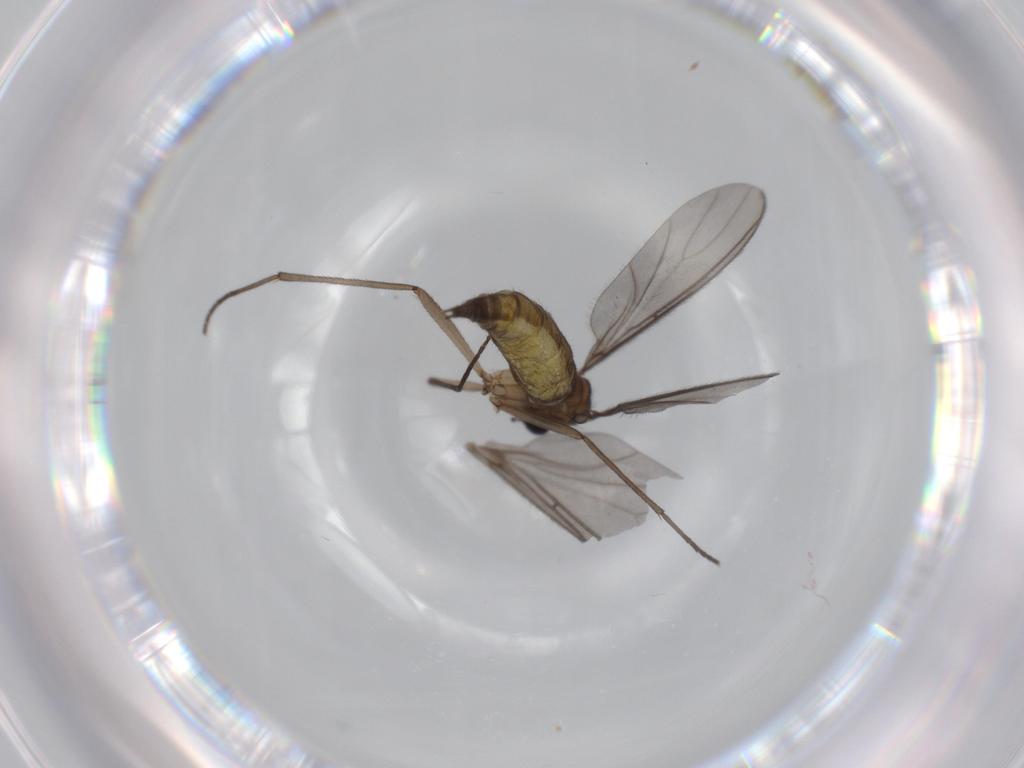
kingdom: Animalia
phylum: Arthropoda
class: Insecta
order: Diptera
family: Sciaridae
